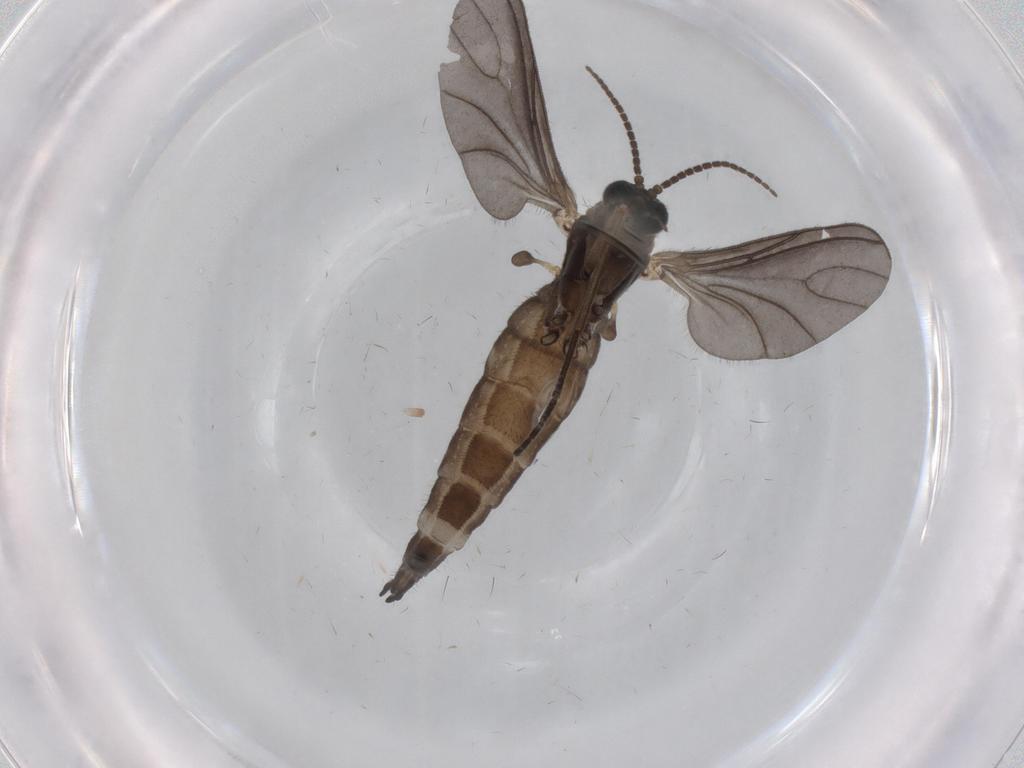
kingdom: Animalia
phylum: Arthropoda
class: Insecta
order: Diptera
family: Sciaridae
